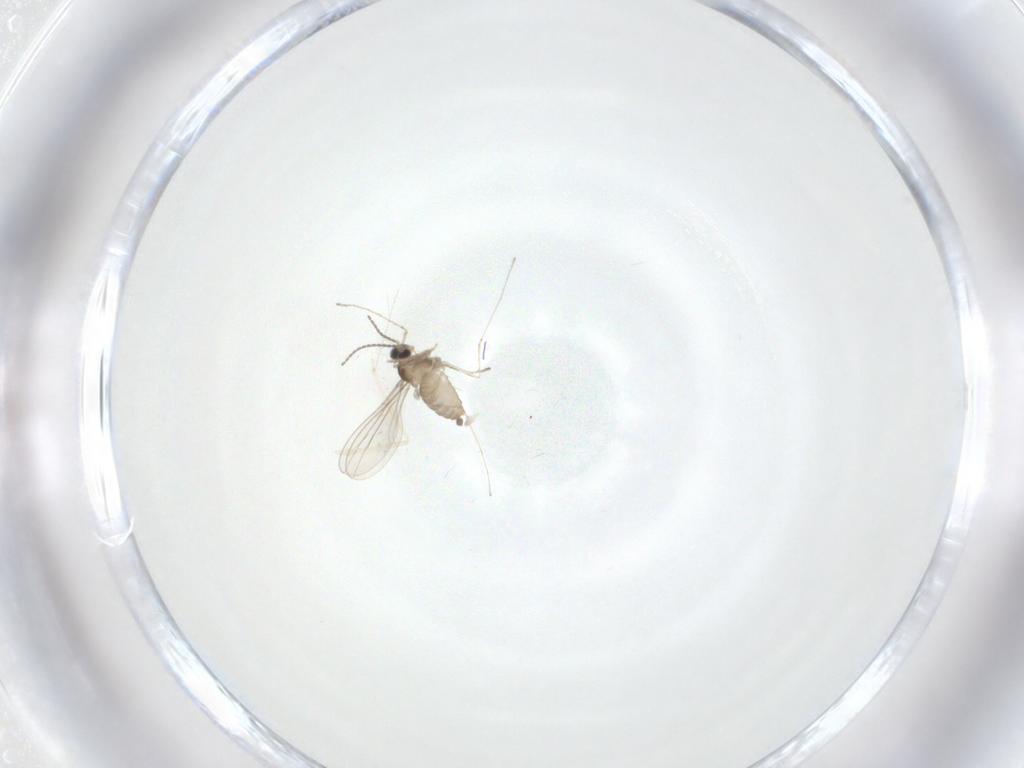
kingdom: Animalia
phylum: Arthropoda
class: Insecta
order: Diptera
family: Cecidomyiidae
